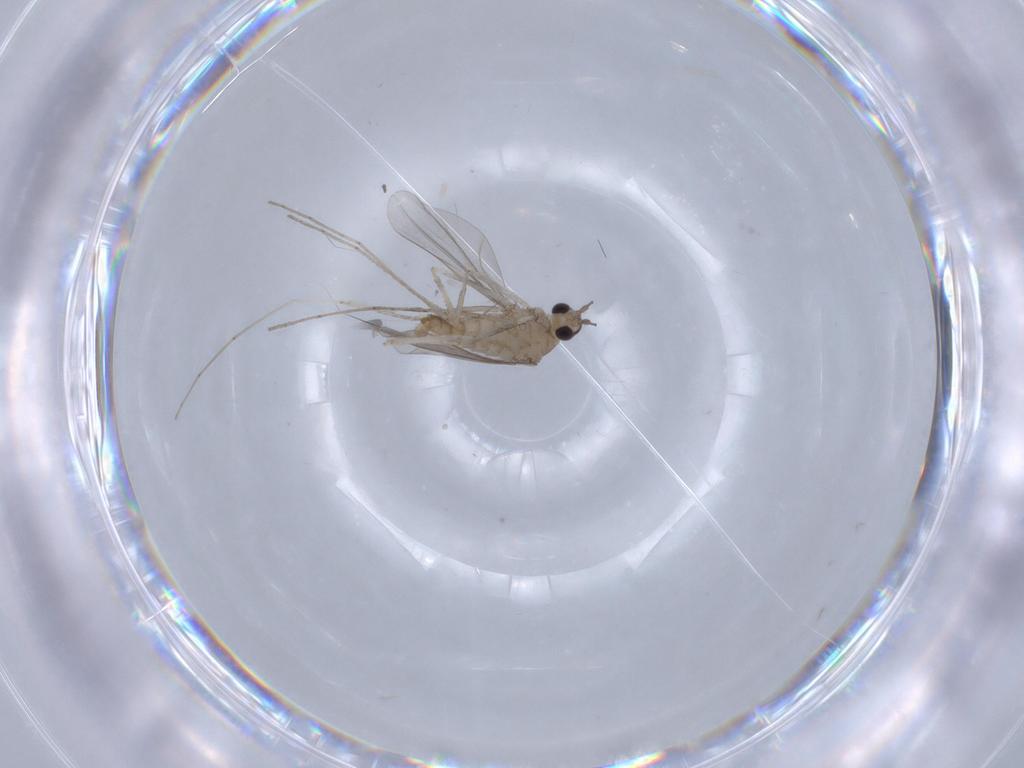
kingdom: Animalia
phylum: Arthropoda
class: Insecta
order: Diptera
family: Cecidomyiidae
